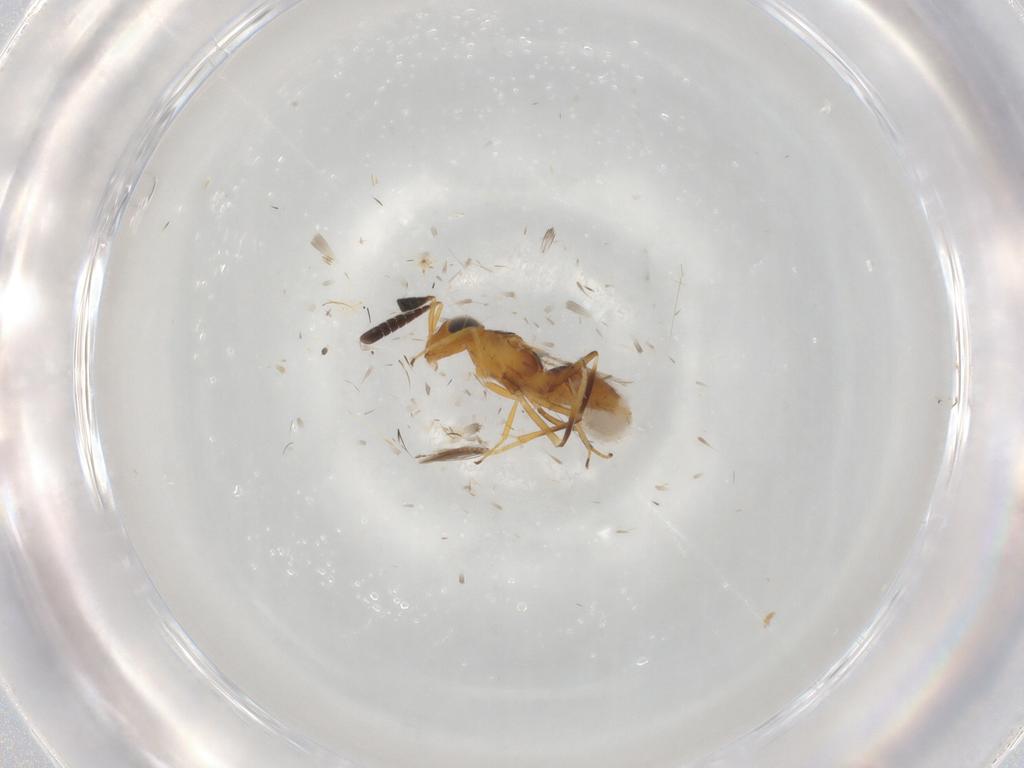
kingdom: Animalia
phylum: Arthropoda
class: Insecta
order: Hymenoptera
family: Encyrtidae
